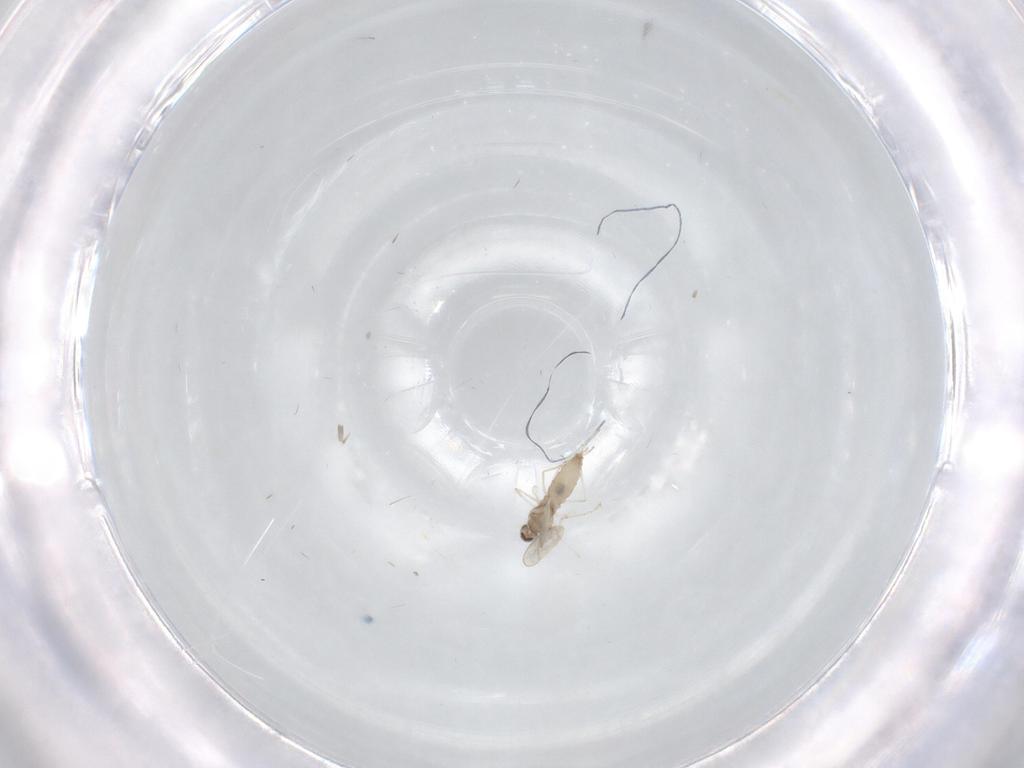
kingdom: Animalia
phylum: Arthropoda
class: Insecta
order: Diptera
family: Cecidomyiidae
